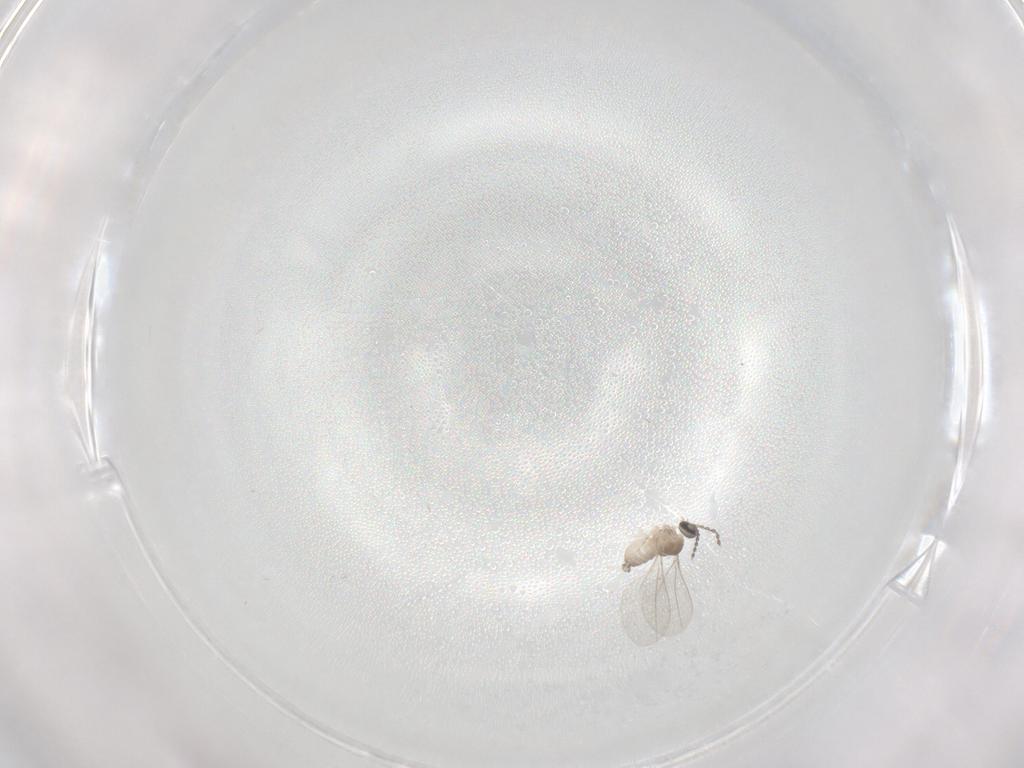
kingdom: Animalia
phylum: Arthropoda
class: Insecta
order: Diptera
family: Cecidomyiidae
